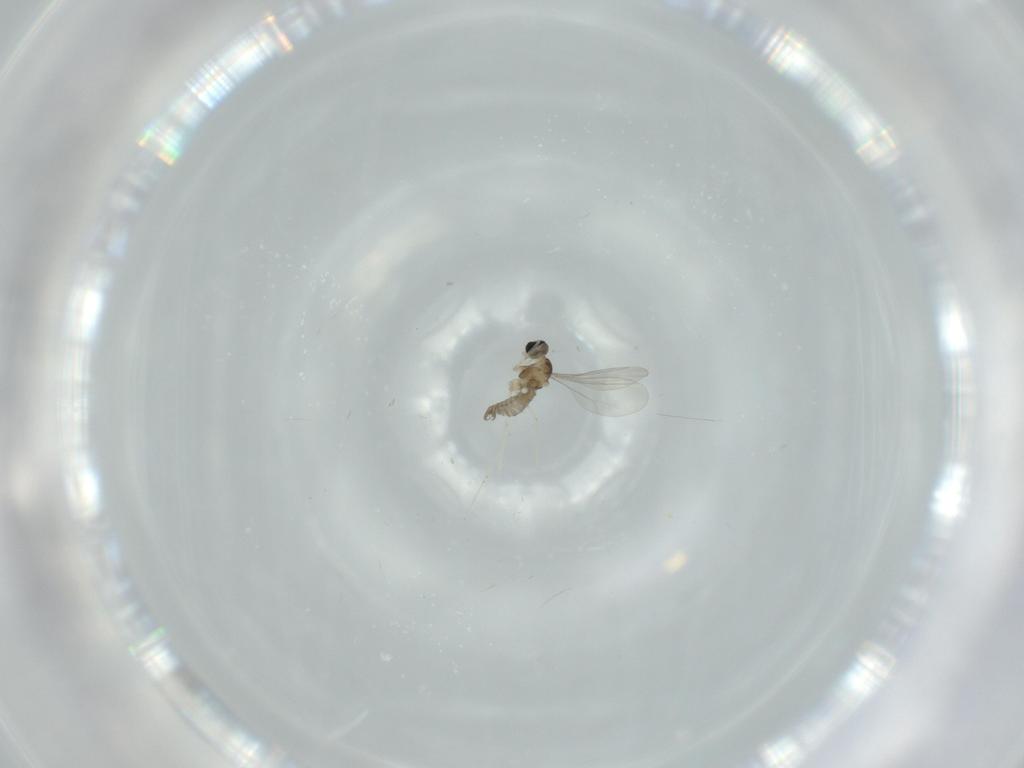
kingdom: Animalia
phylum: Arthropoda
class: Insecta
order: Diptera
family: Cecidomyiidae
